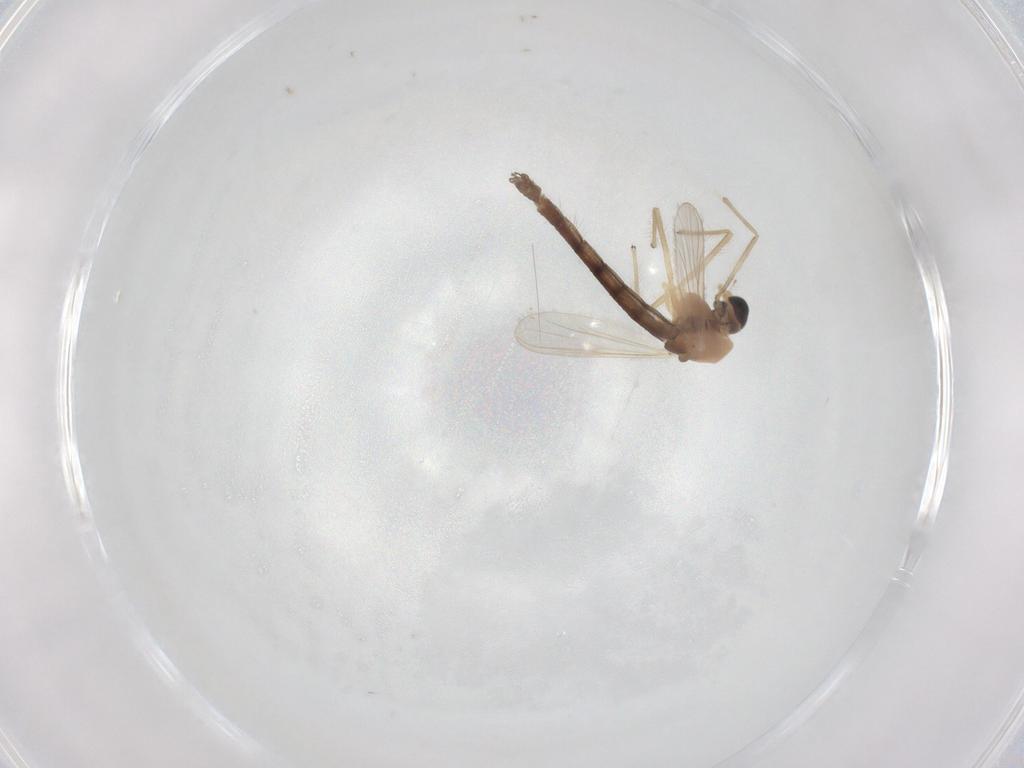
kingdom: Animalia
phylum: Arthropoda
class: Insecta
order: Diptera
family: Chironomidae
